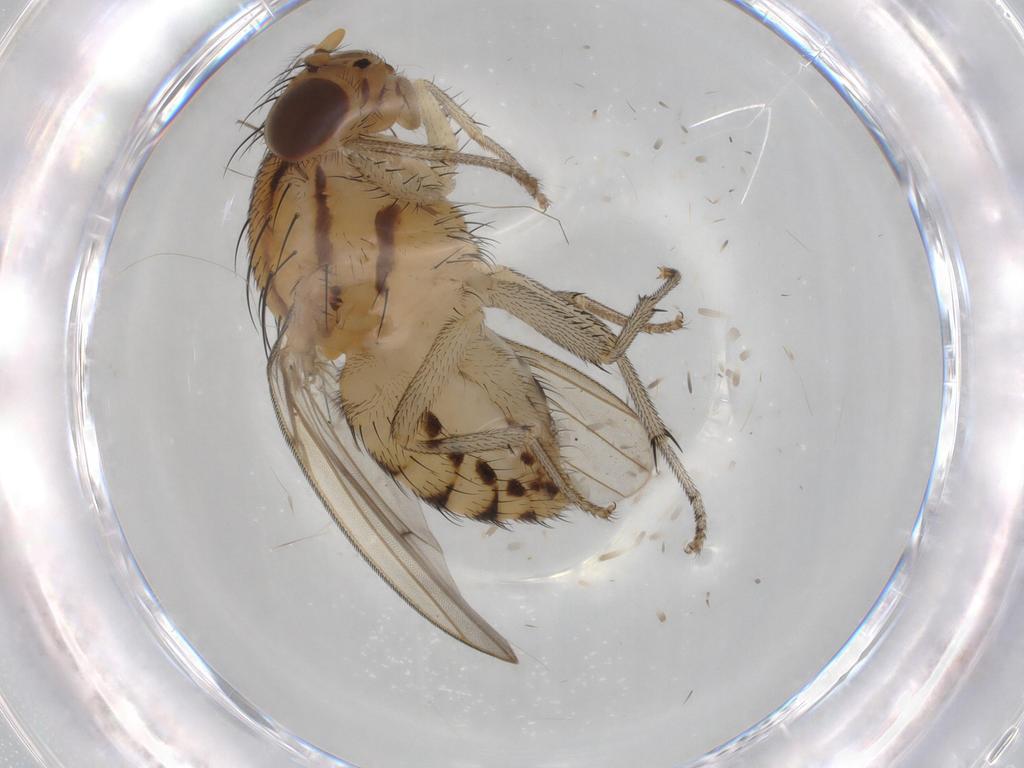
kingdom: Animalia
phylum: Arthropoda
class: Insecta
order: Diptera
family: Lauxaniidae
